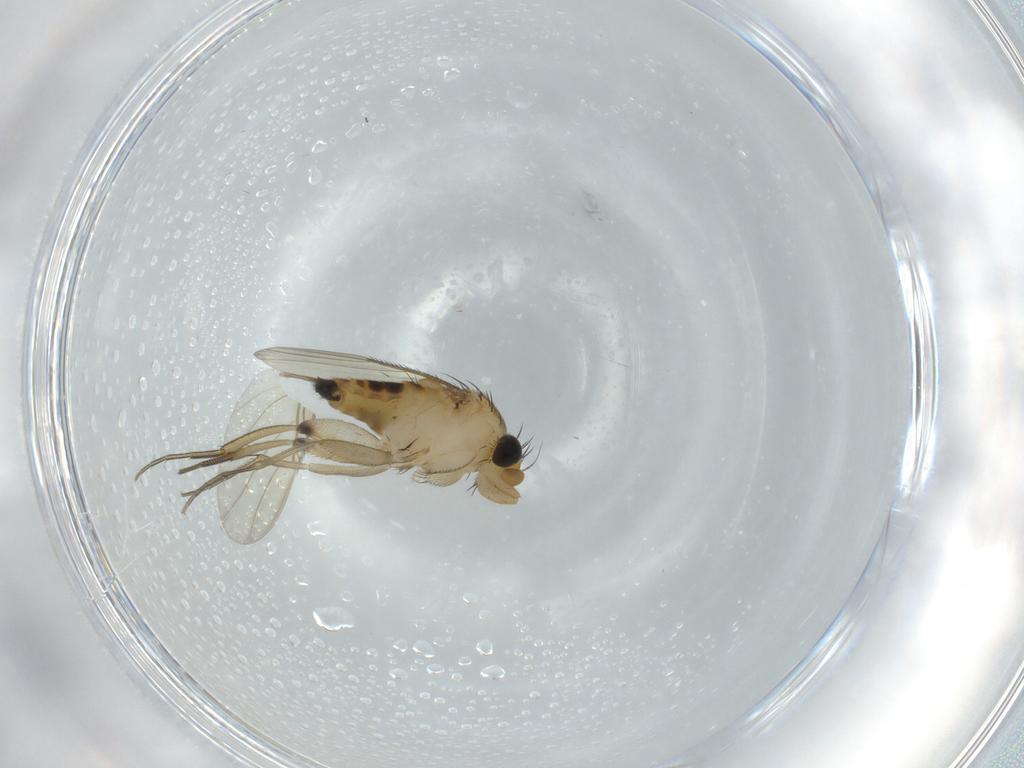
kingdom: Animalia
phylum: Arthropoda
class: Insecta
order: Diptera
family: Phoridae
